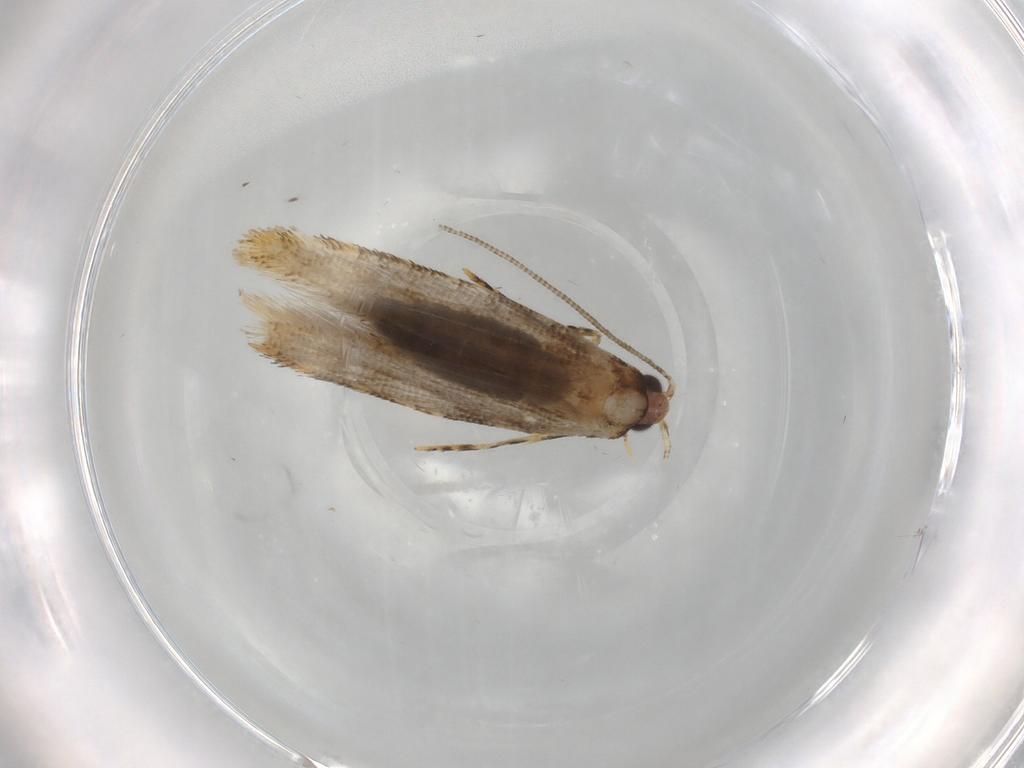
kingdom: Animalia
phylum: Arthropoda
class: Insecta
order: Lepidoptera
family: Tineidae
